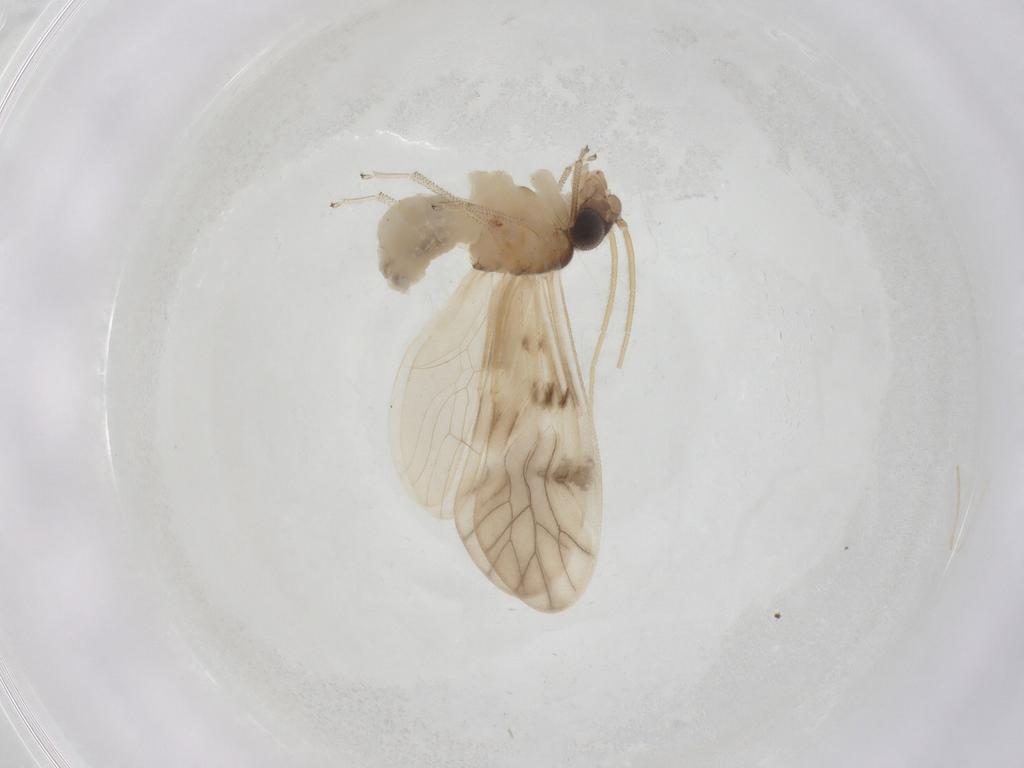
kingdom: Animalia
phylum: Arthropoda
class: Insecta
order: Psocodea
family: Caeciliusidae
